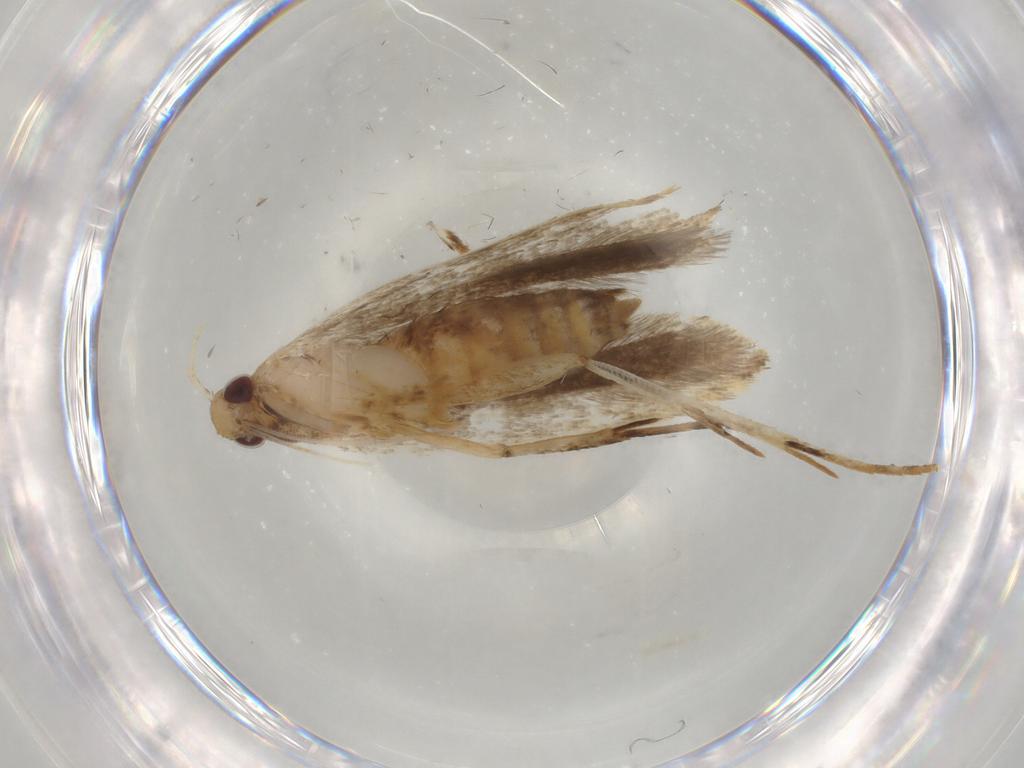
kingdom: Animalia
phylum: Arthropoda
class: Insecta
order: Lepidoptera
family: Gelechiidae
